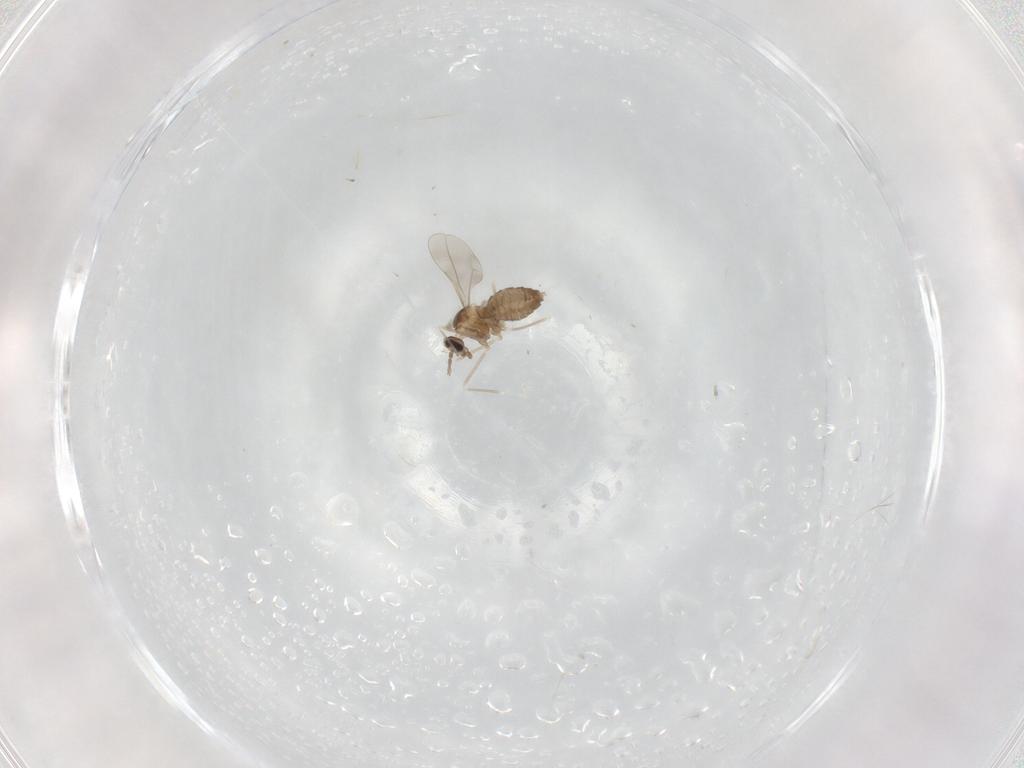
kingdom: Animalia
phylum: Arthropoda
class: Insecta
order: Diptera
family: Cecidomyiidae
